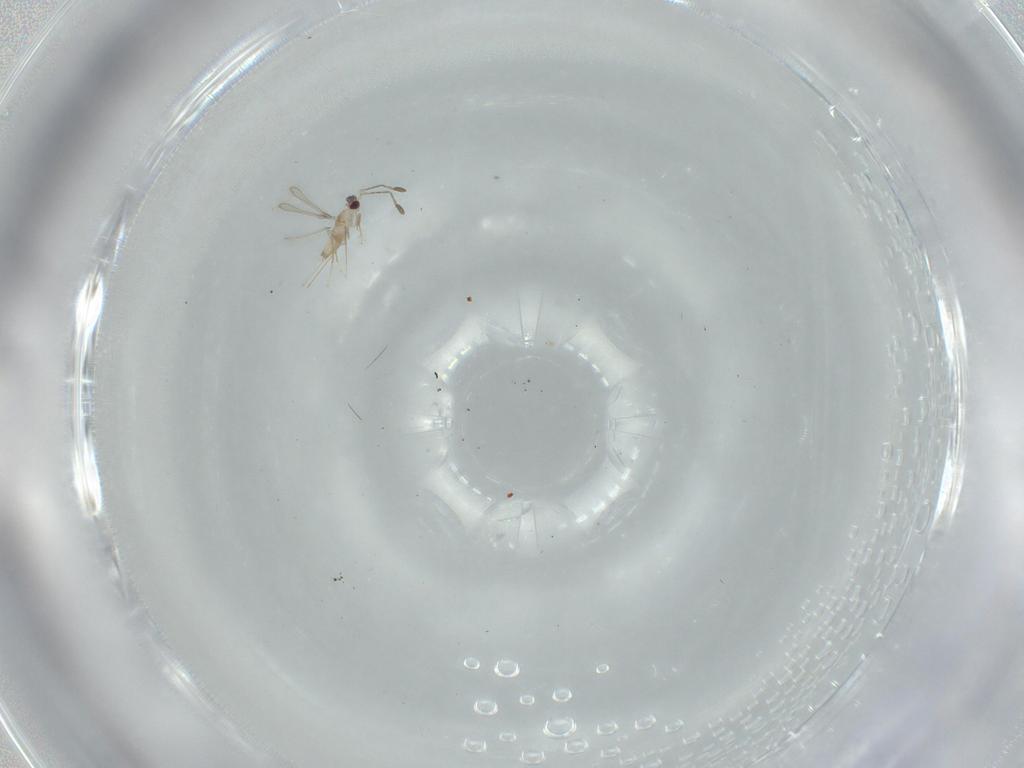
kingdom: Animalia
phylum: Arthropoda
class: Insecta
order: Hymenoptera
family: Mymaridae
